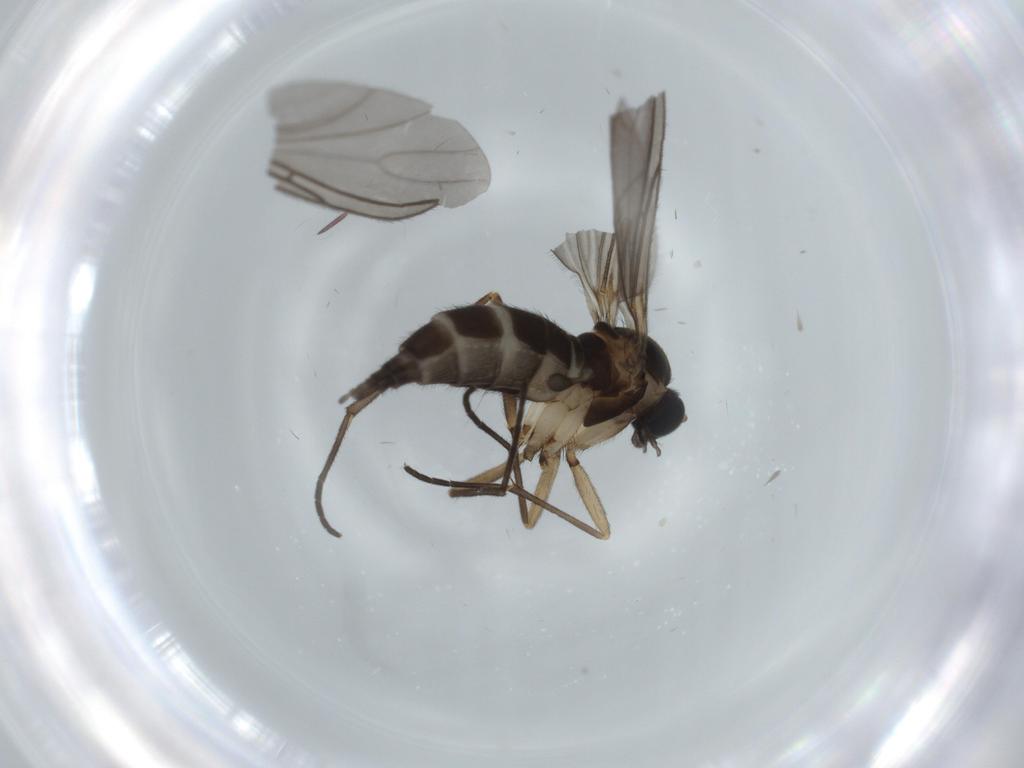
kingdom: Animalia
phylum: Arthropoda
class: Insecta
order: Diptera
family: Sciaridae
